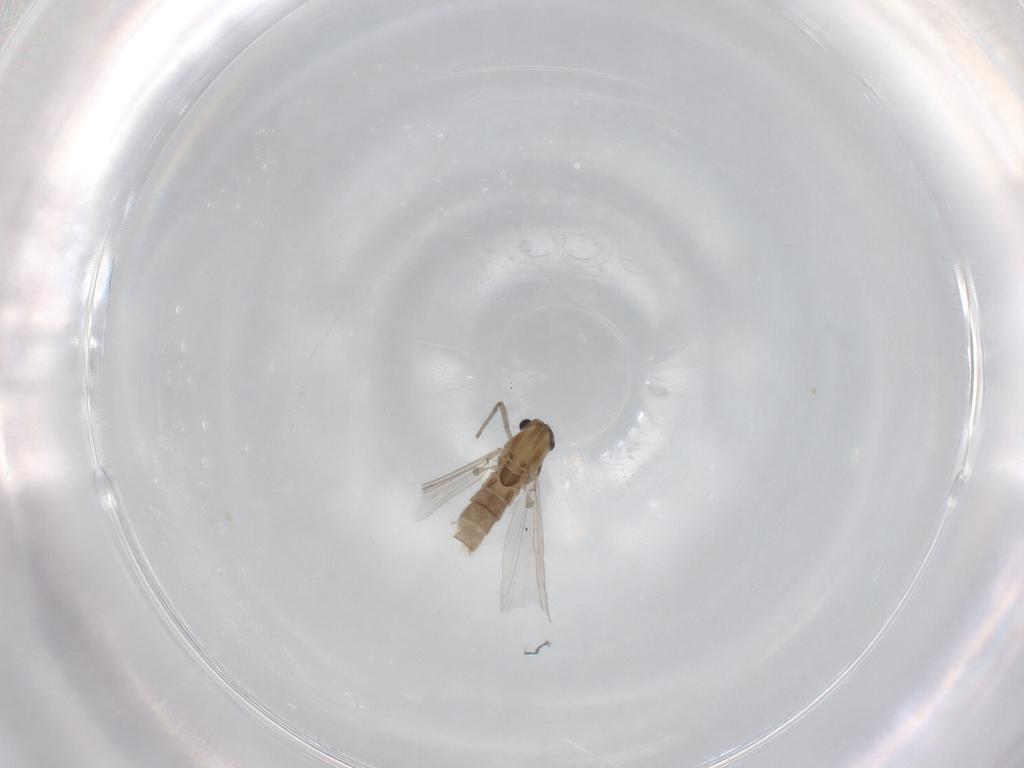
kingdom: Animalia
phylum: Arthropoda
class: Insecta
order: Diptera
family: Chironomidae
